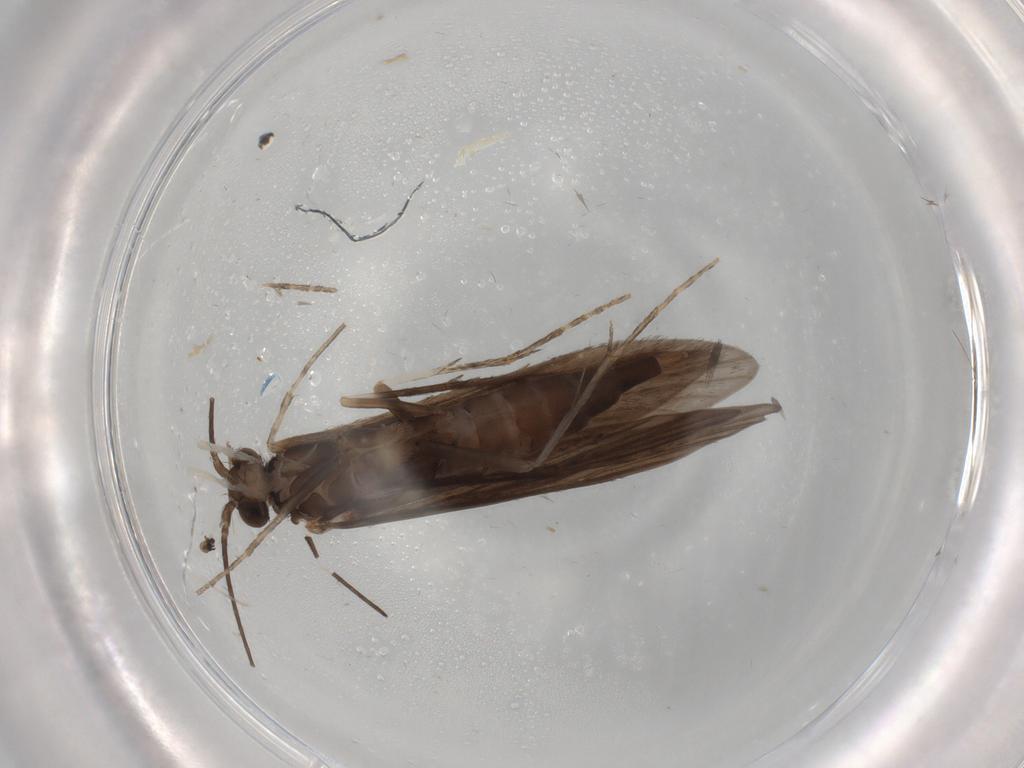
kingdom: Animalia
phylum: Arthropoda
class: Insecta
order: Trichoptera
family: Xiphocentronidae
